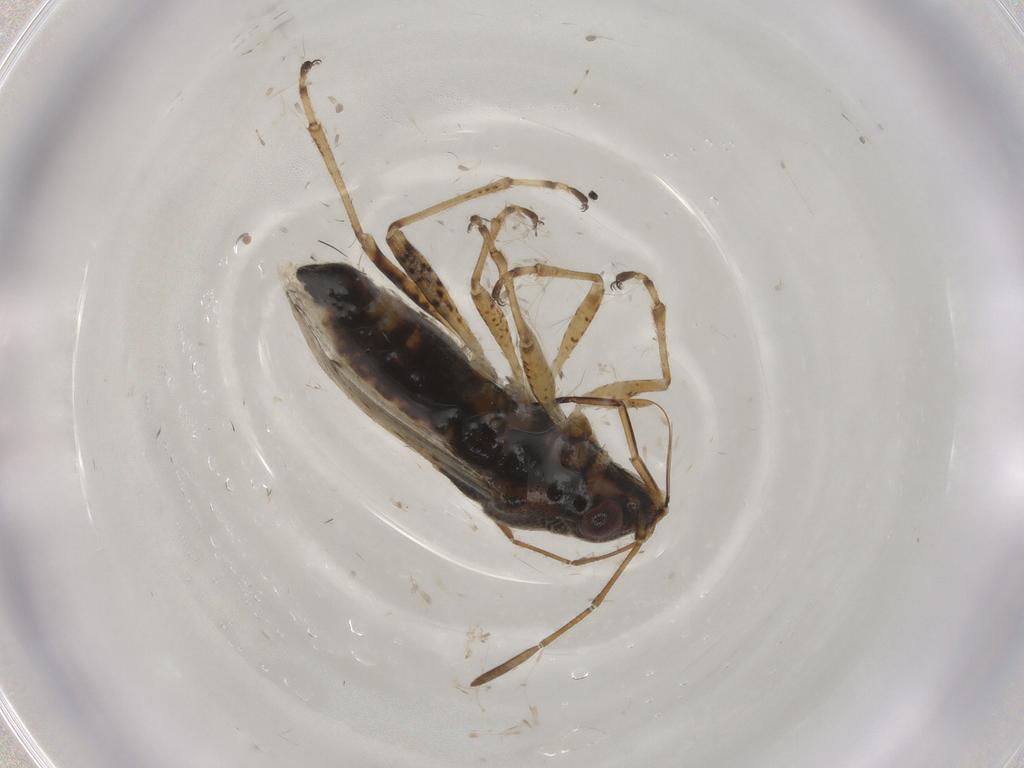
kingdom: Animalia
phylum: Arthropoda
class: Insecta
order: Hemiptera
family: Lygaeidae
